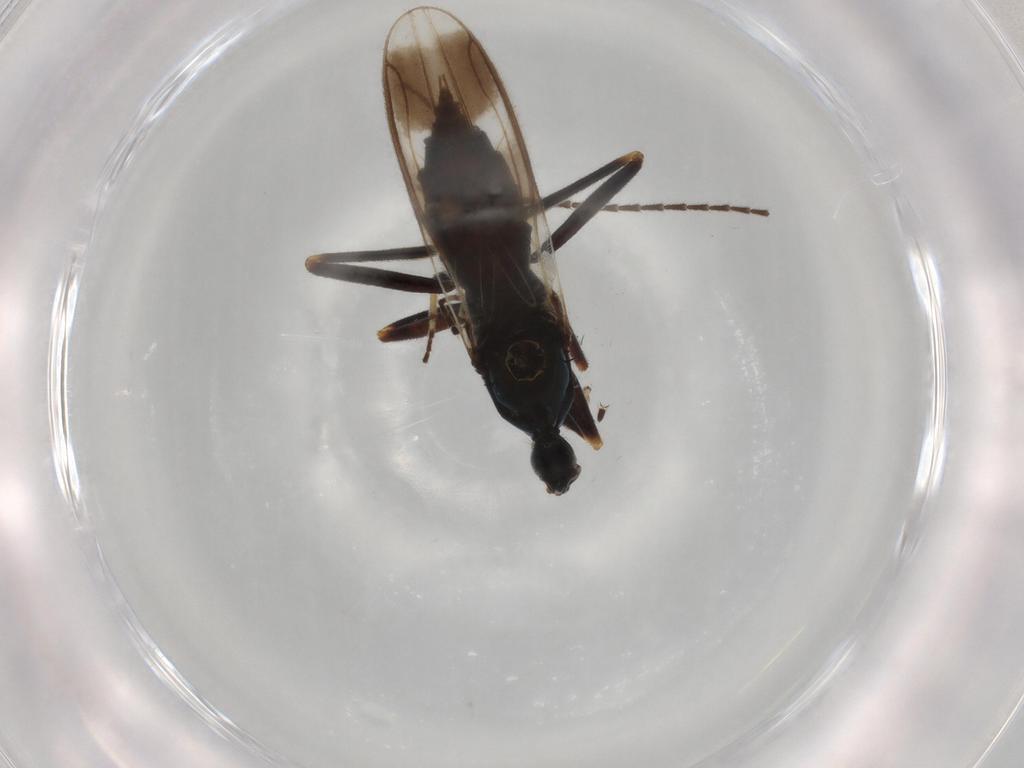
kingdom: Animalia
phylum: Arthropoda
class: Insecta
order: Diptera
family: Hybotidae
